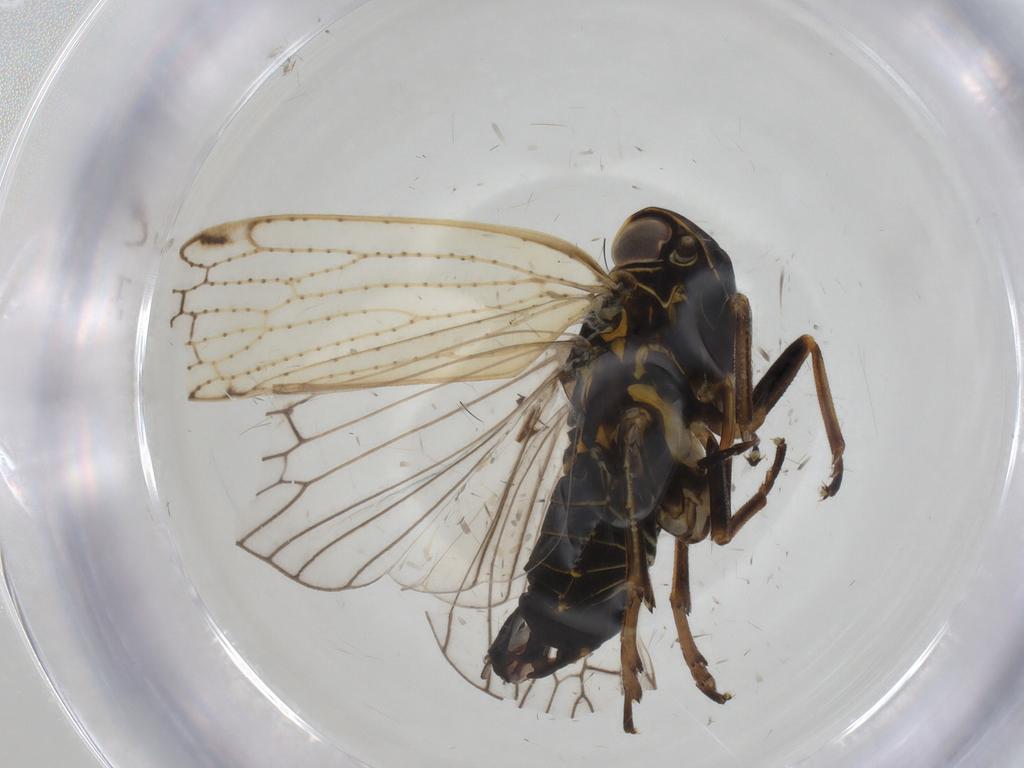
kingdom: Animalia
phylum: Arthropoda
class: Insecta
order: Hemiptera
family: Cixiidae
